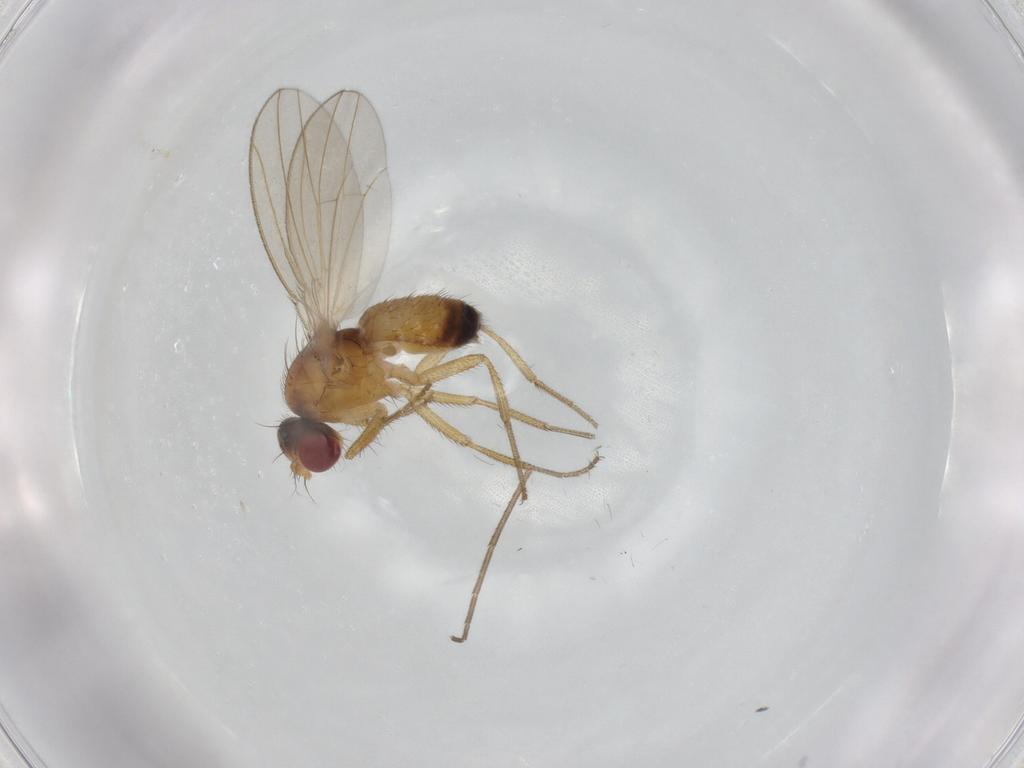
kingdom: Animalia
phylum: Arthropoda
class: Insecta
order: Diptera
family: Drosophilidae
